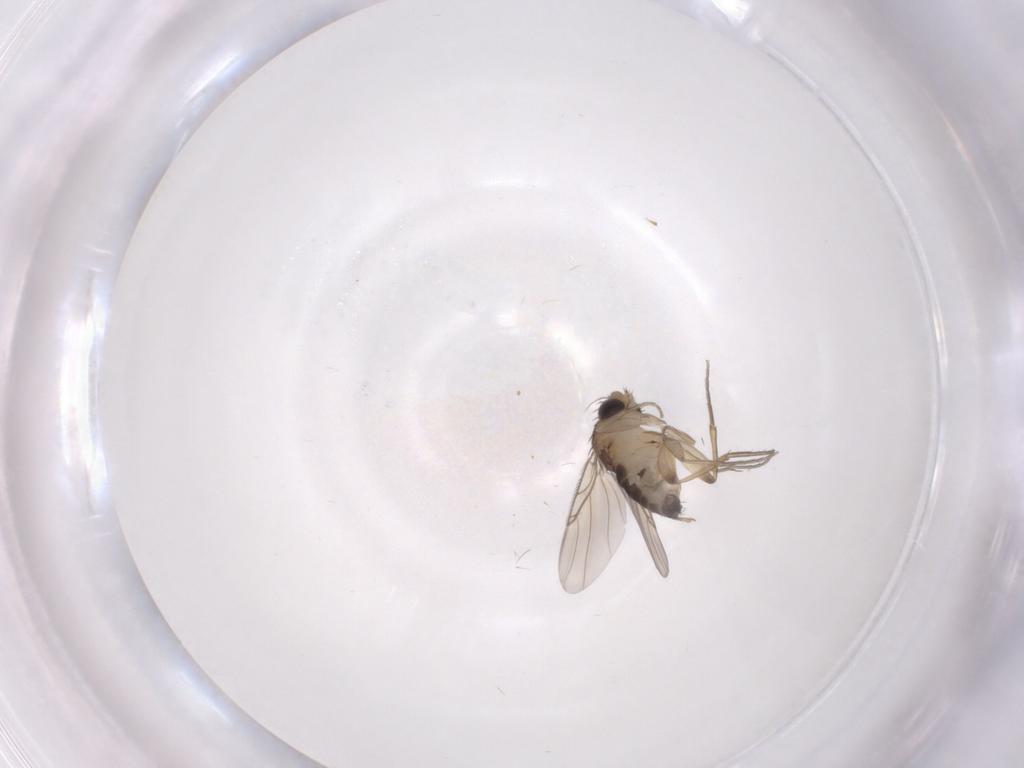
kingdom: Animalia
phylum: Arthropoda
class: Insecta
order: Diptera
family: Phoridae
